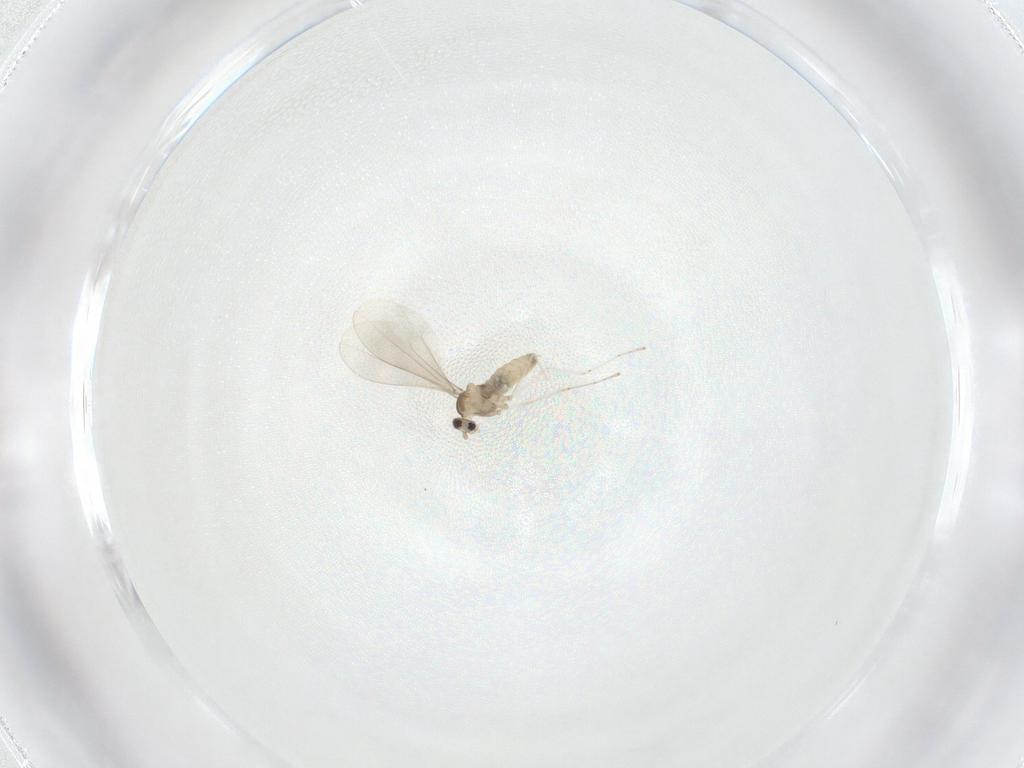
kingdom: Animalia
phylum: Arthropoda
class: Insecta
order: Diptera
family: Cecidomyiidae
